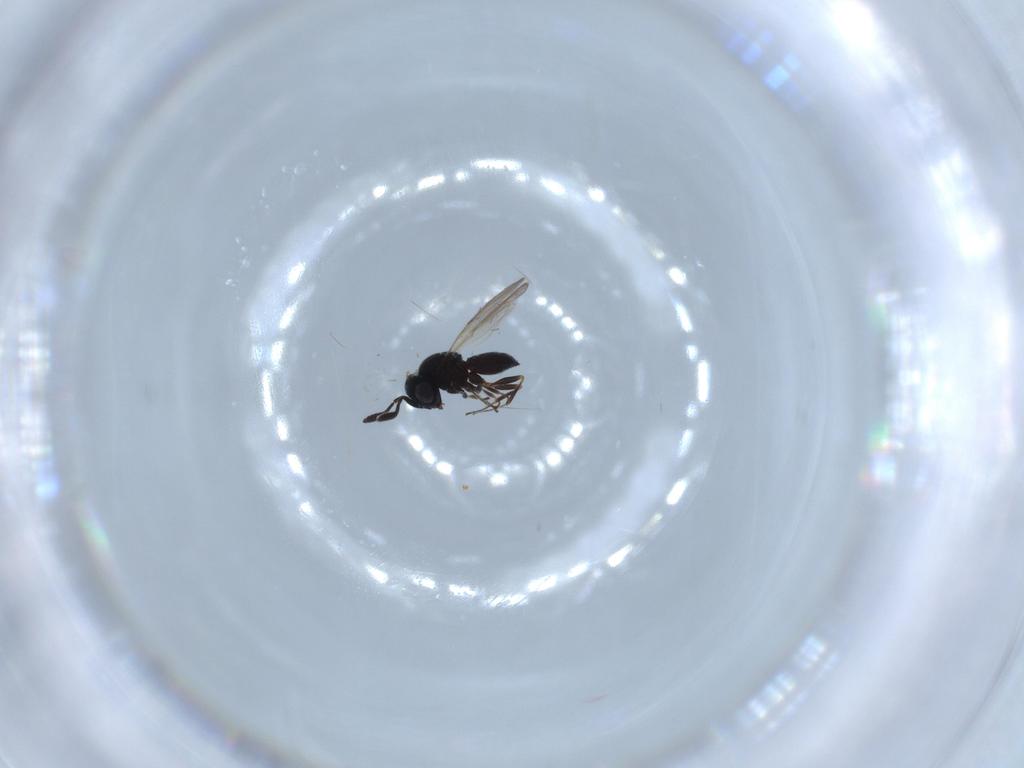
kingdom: Animalia
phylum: Arthropoda
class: Insecta
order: Hymenoptera
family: Scelionidae
